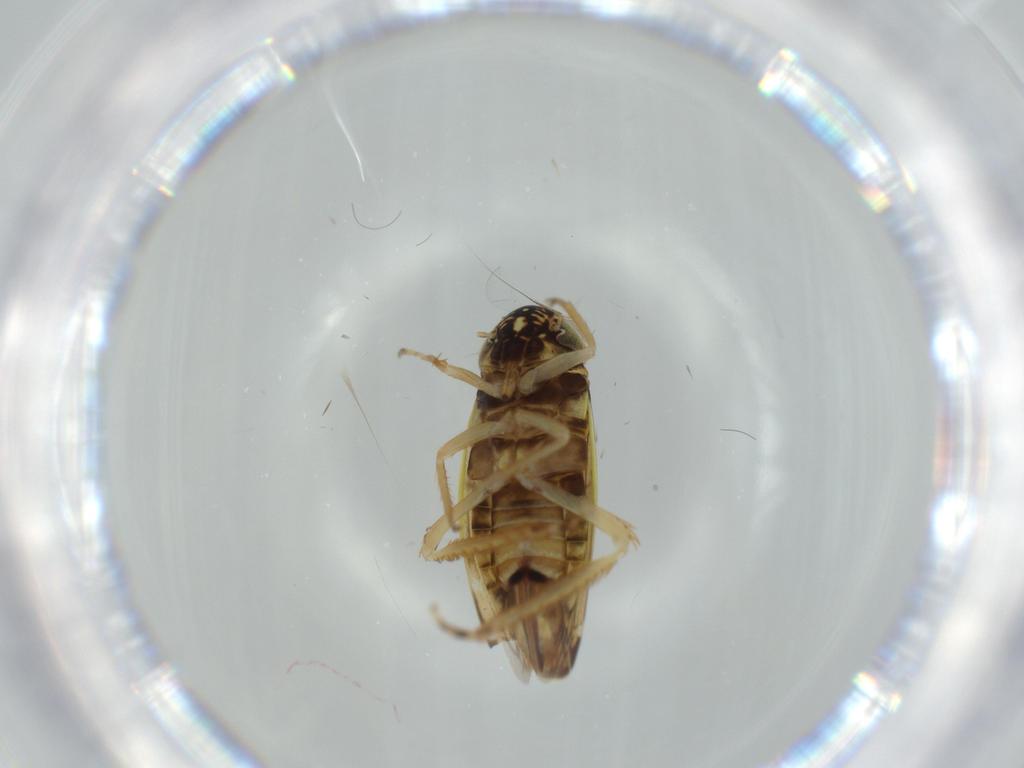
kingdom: Animalia
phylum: Arthropoda
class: Insecta
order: Hemiptera
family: Cicadellidae
